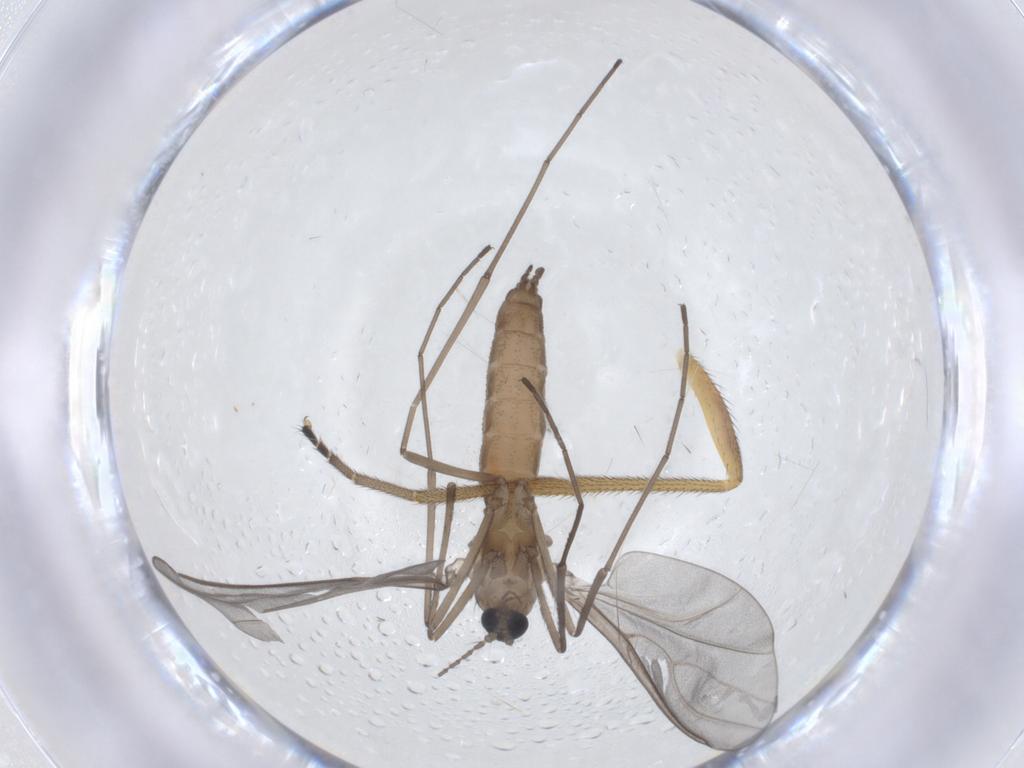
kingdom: Animalia
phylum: Arthropoda
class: Insecta
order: Diptera
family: Brachystomatidae
